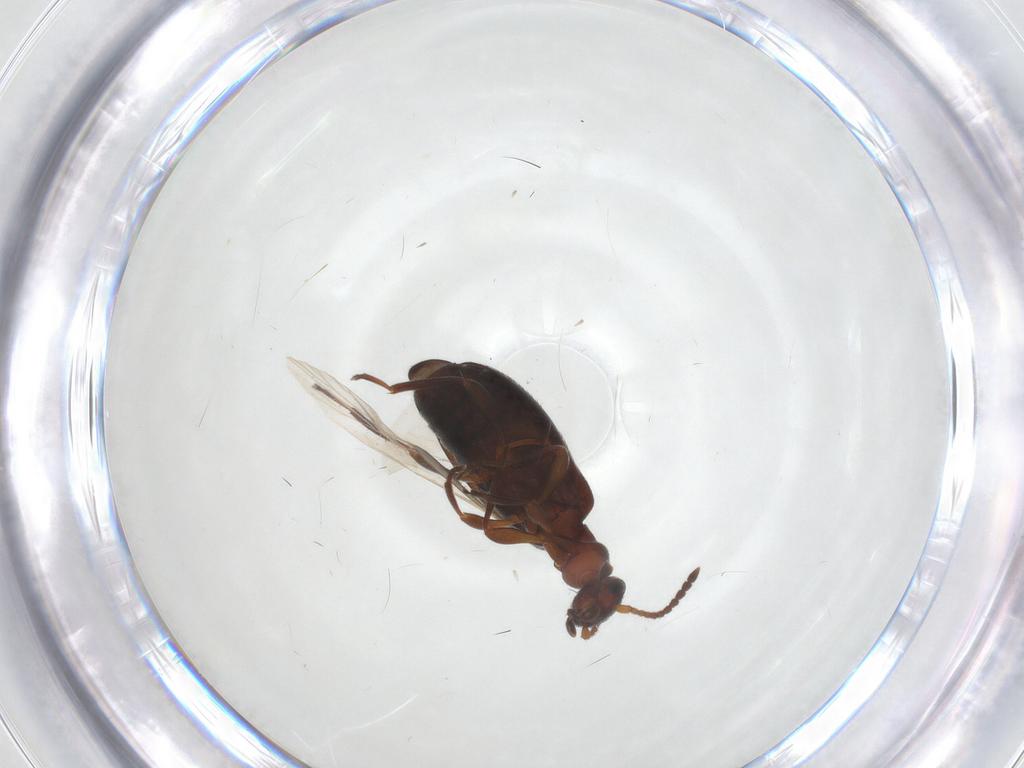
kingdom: Animalia
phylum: Arthropoda
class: Insecta
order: Coleoptera
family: Anthicidae
